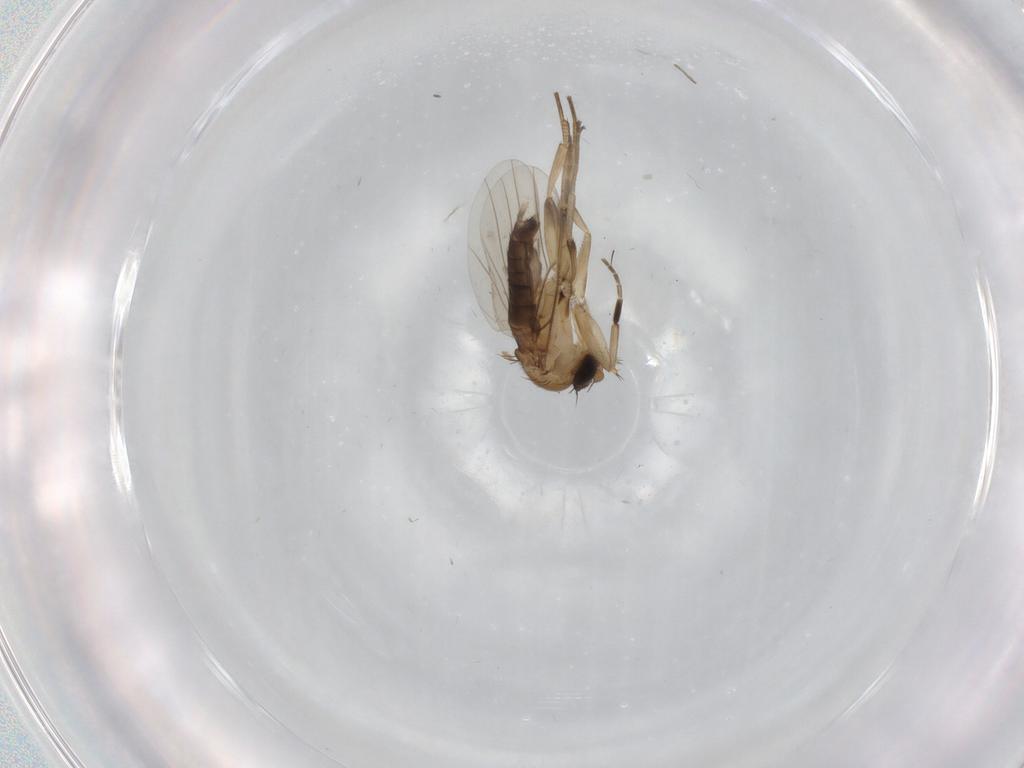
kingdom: Animalia
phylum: Arthropoda
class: Insecta
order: Diptera
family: Phoridae
